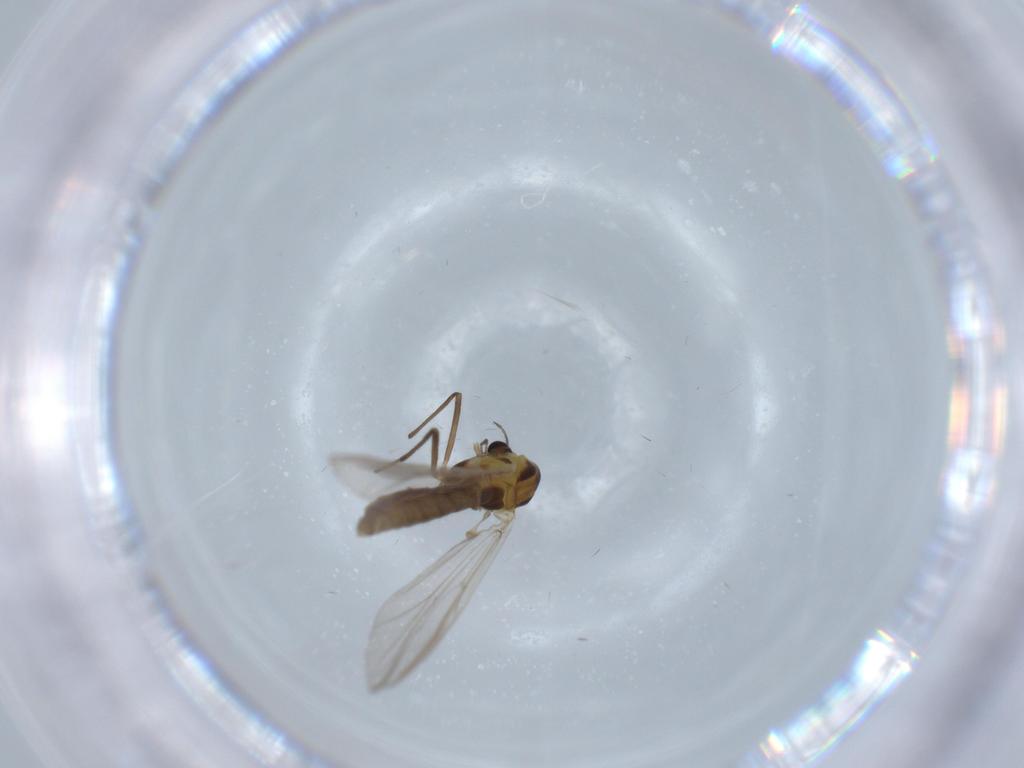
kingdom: Animalia
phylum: Arthropoda
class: Insecta
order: Diptera
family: Chironomidae
